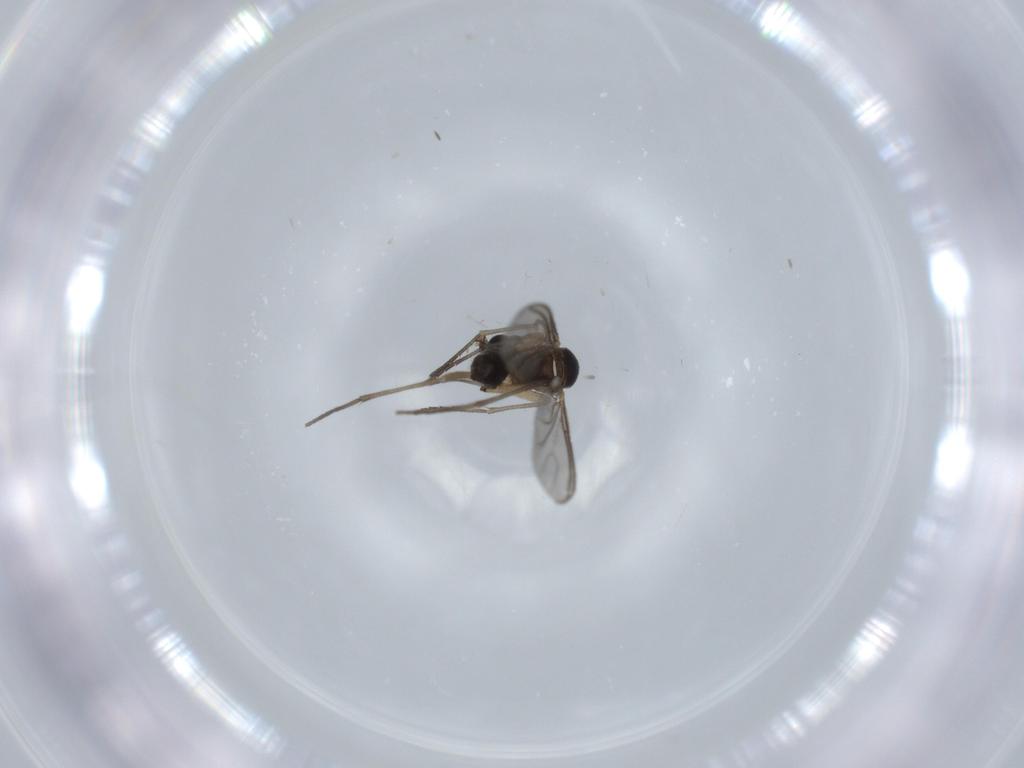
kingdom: Animalia
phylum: Arthropoda
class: Insecta
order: Diptera
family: Sciaridae
